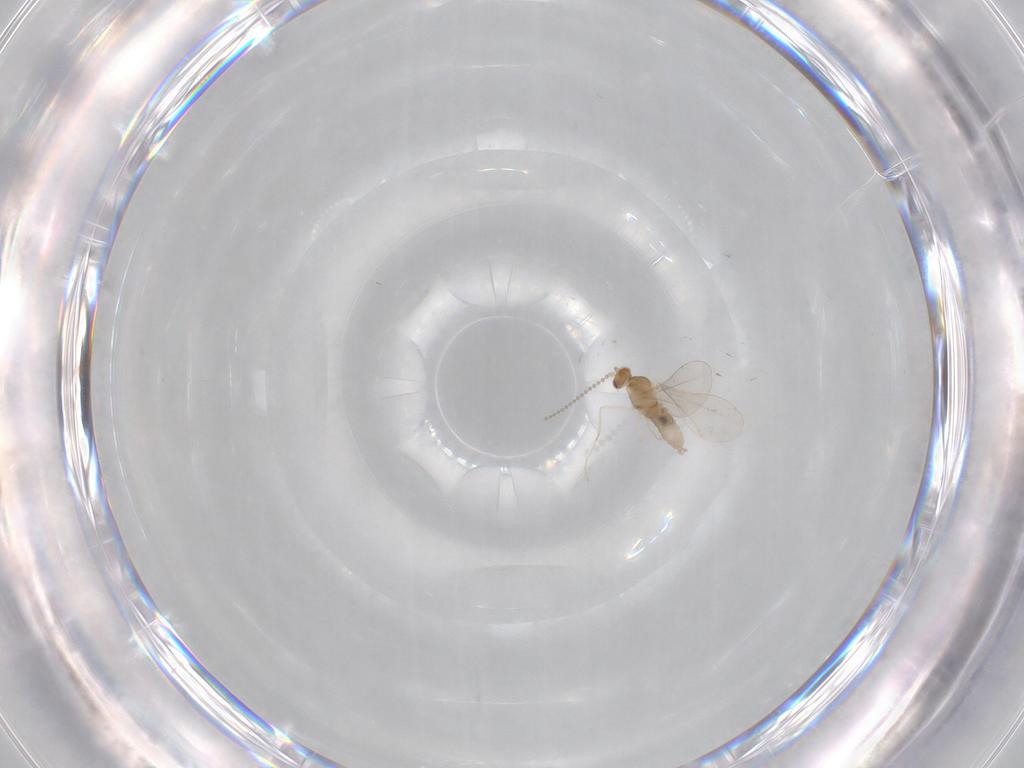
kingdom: Animalia
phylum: Arthropoda
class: Insecta
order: Diptera
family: Cecidomyiidae
